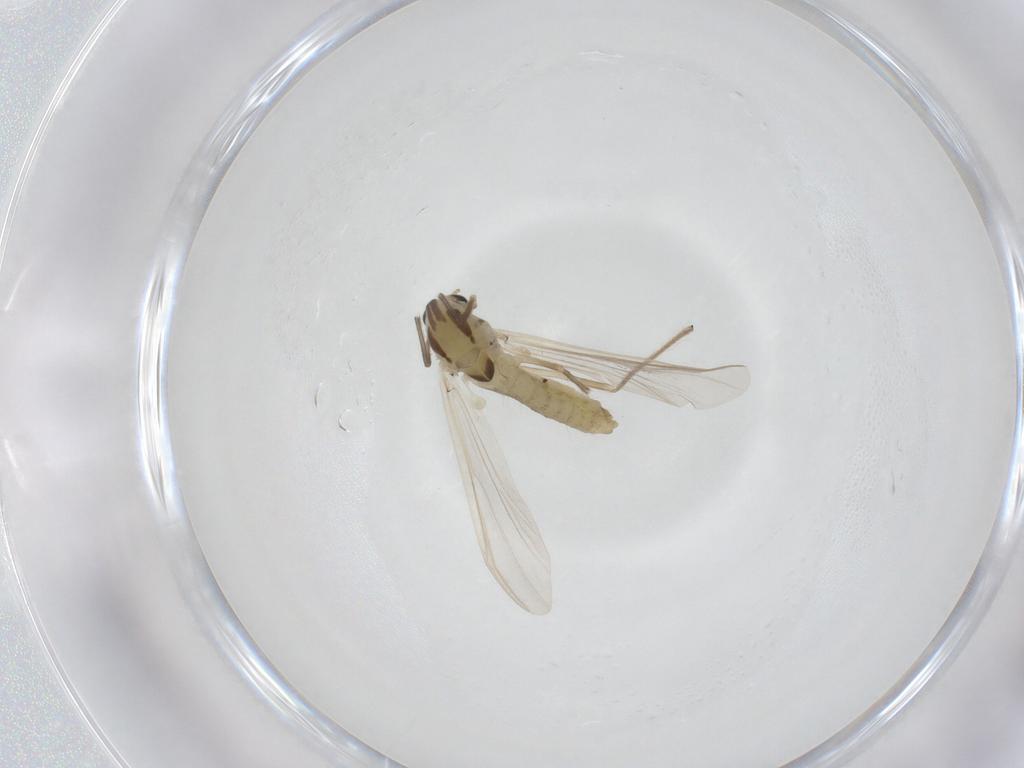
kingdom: Animalia
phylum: Arthropoda
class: Insecta
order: Diptera
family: Chironomidae
